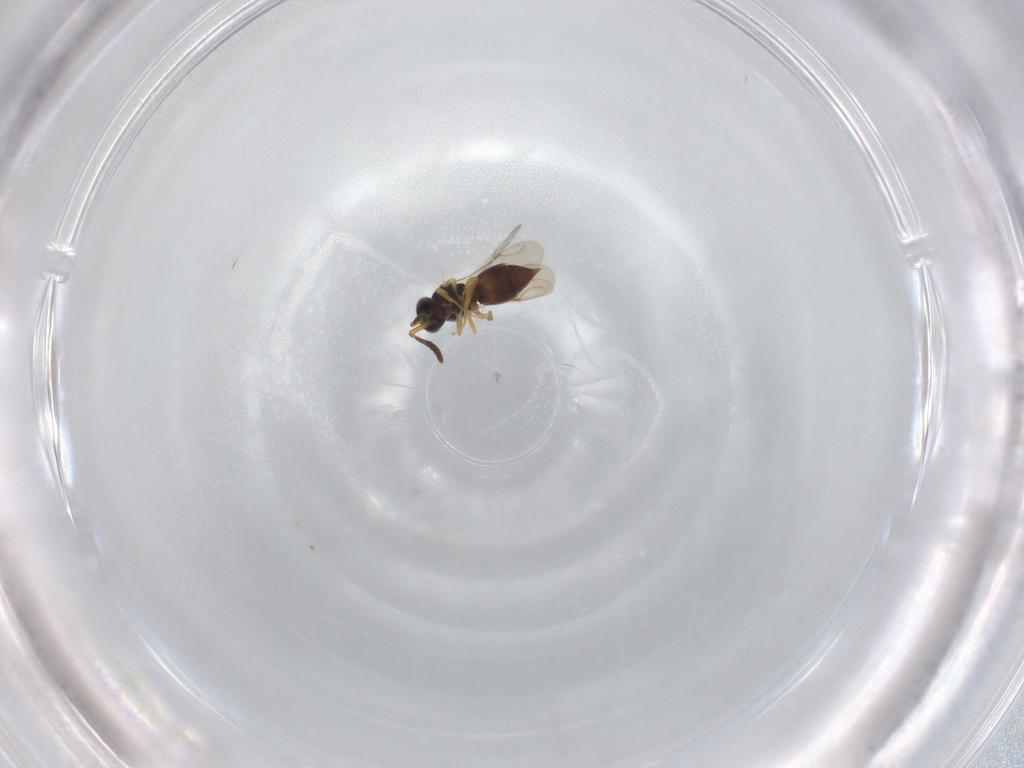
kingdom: Animalia
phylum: Arthropoda
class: Insecta
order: Hymenoptera
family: Ceraphronidae
